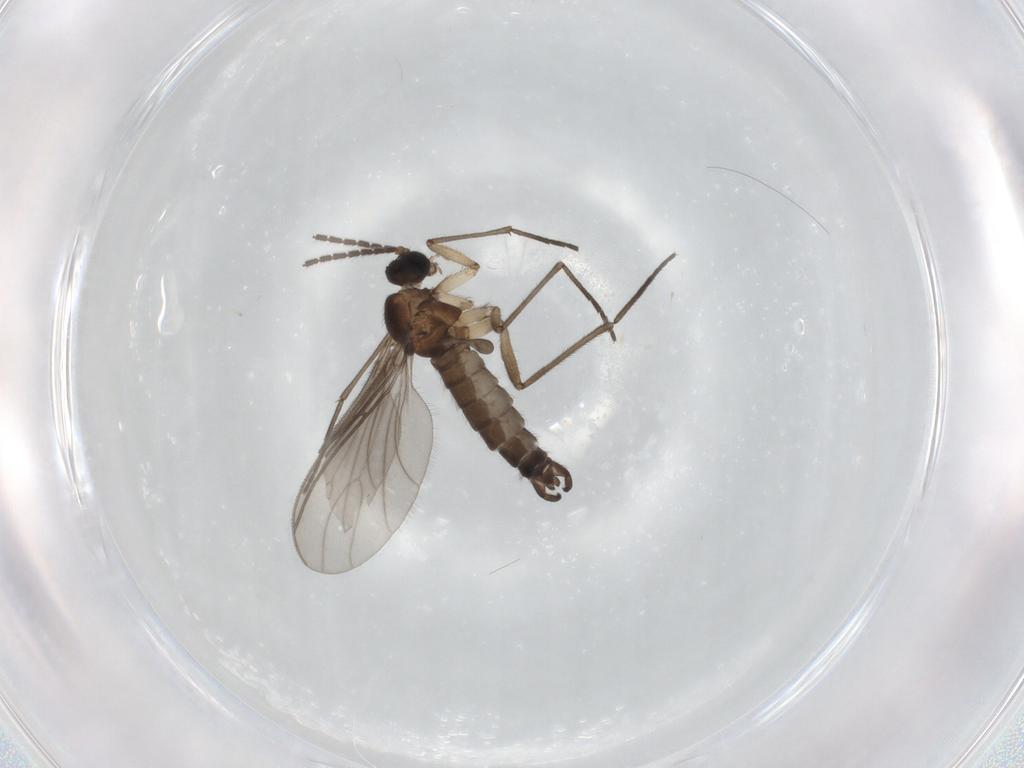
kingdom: Animalia
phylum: Arthropoda
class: Insecta
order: Diptera
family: Sciaridae
